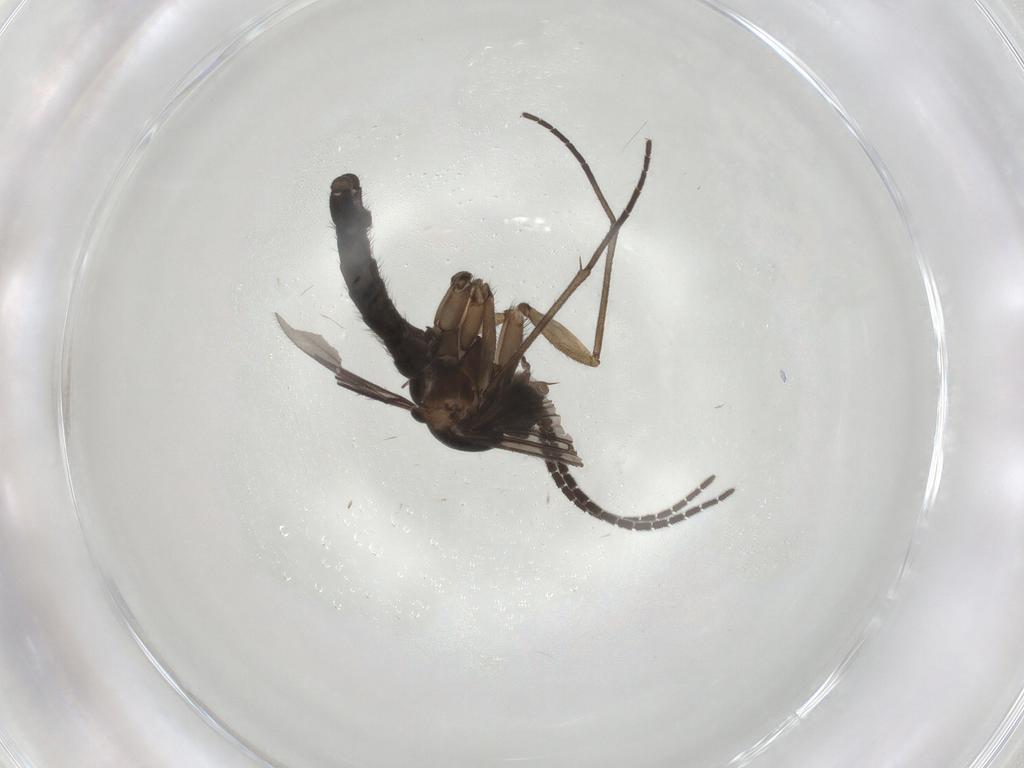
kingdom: Animalia
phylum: Arthropoda
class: Insecta
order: Diptera
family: Sciaridae
